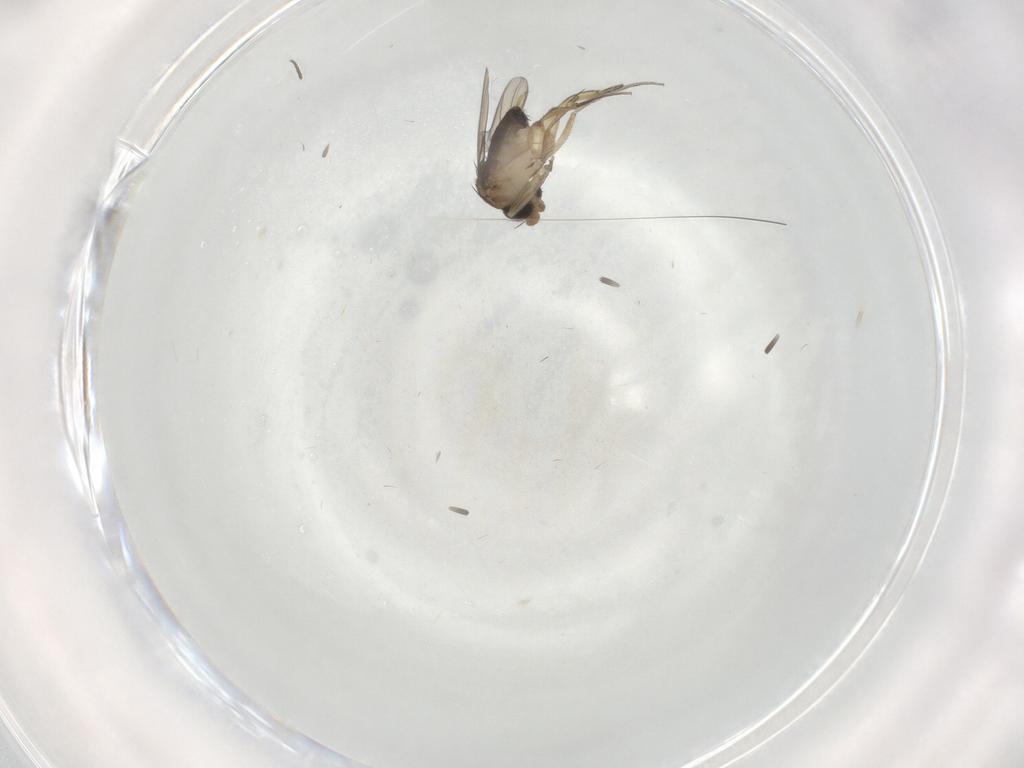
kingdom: Animalia
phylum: Arthropoda
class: Insecta
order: Diptera
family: Phoridae
